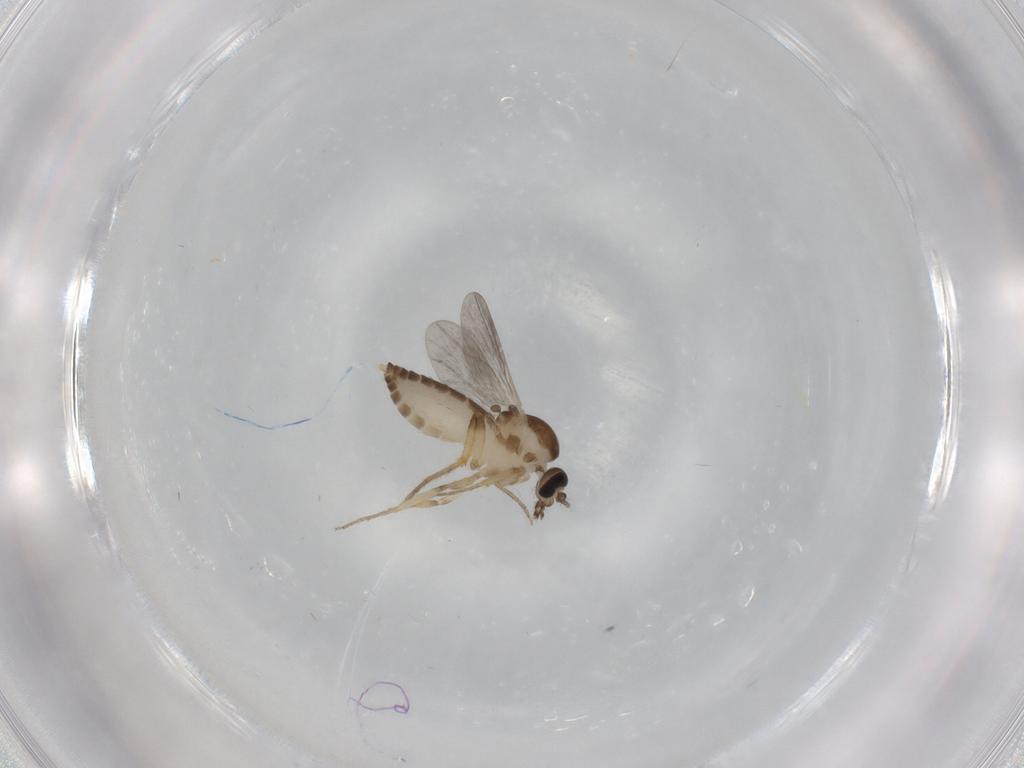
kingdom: Animalia
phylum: Arthropoda
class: Insecta
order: Diptera
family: Ceratopogonidae
